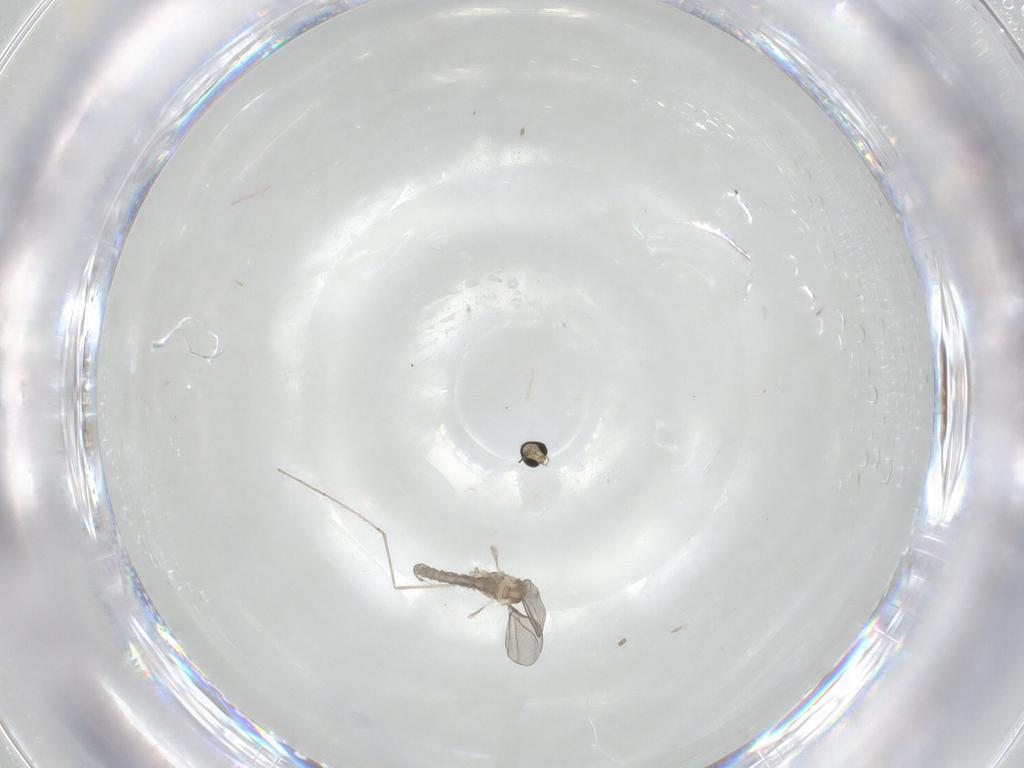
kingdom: Animalia
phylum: Arthropoda
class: Insecta
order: Diptera
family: Cecidomyiidae
